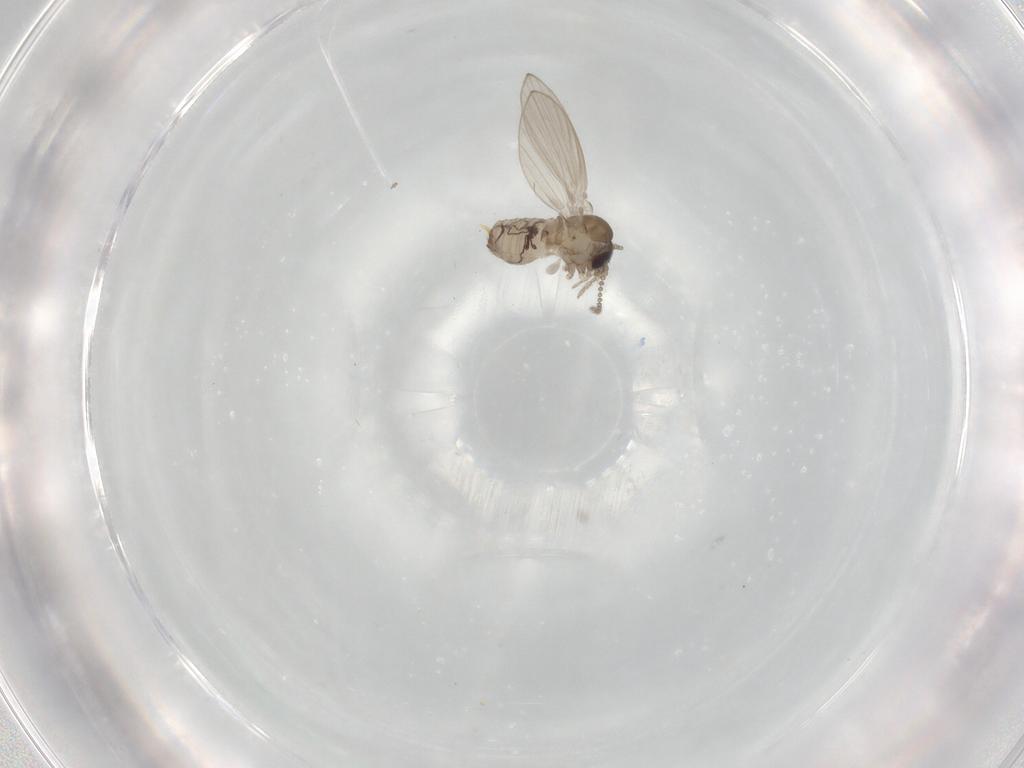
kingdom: Animalia
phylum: Arthropoda
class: Insecta
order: Diptera
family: Psychodidae
